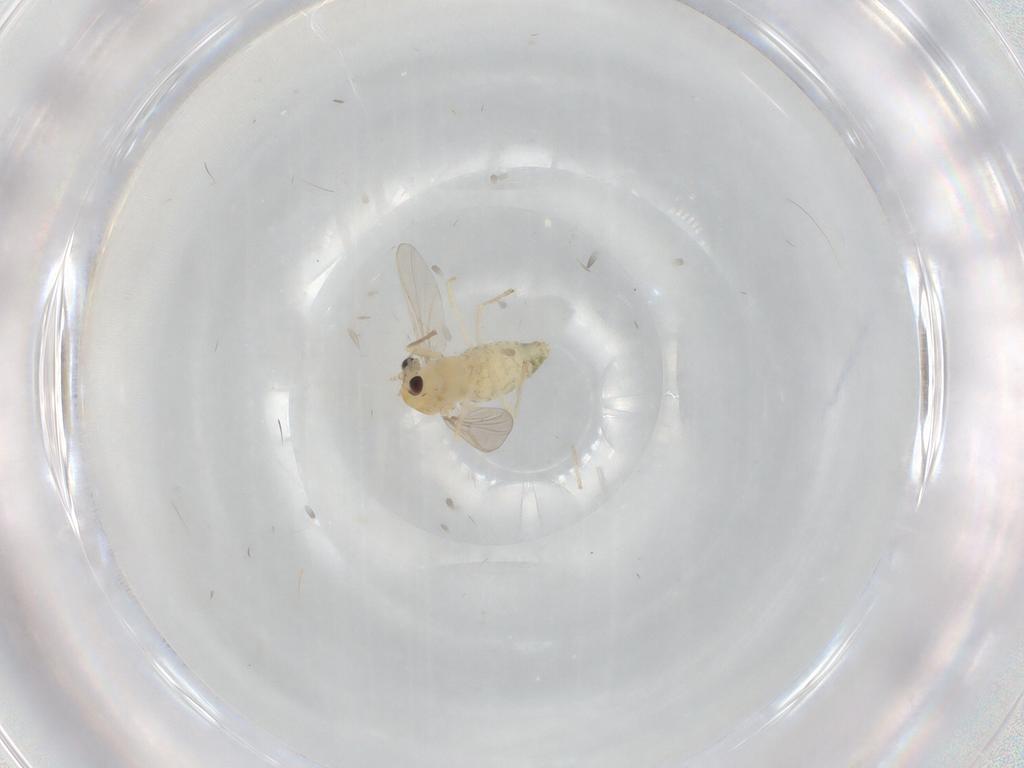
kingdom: Animalia
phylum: Arthropoda
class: Insecta
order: Diptera
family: Chironomidae
